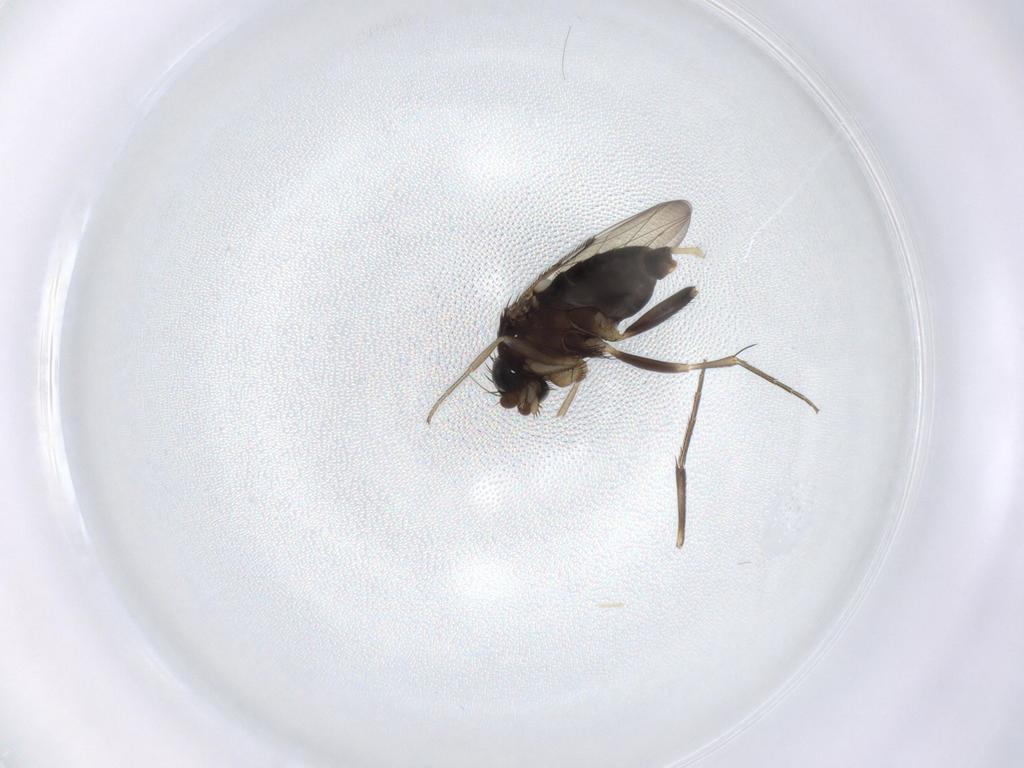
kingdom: Animalia
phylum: Arthropoda
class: Insecta
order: Diptera
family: Phoridae
